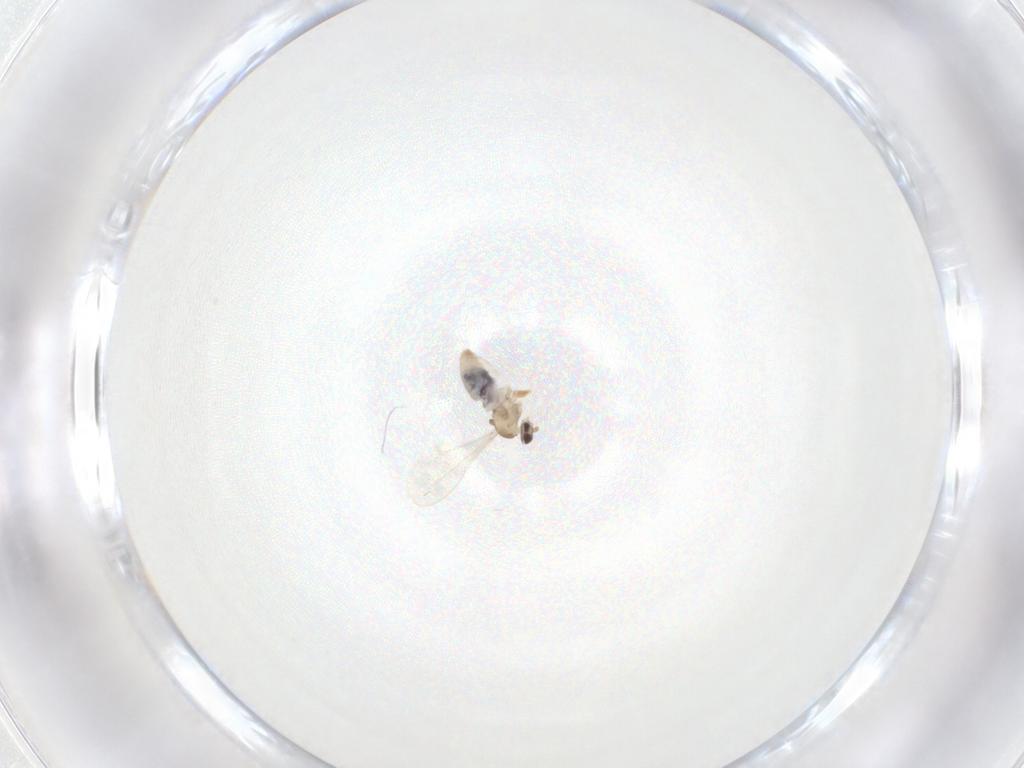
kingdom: Animalia
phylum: Arthropoda
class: Insecta
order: Diptera
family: Cecidomyiidae
